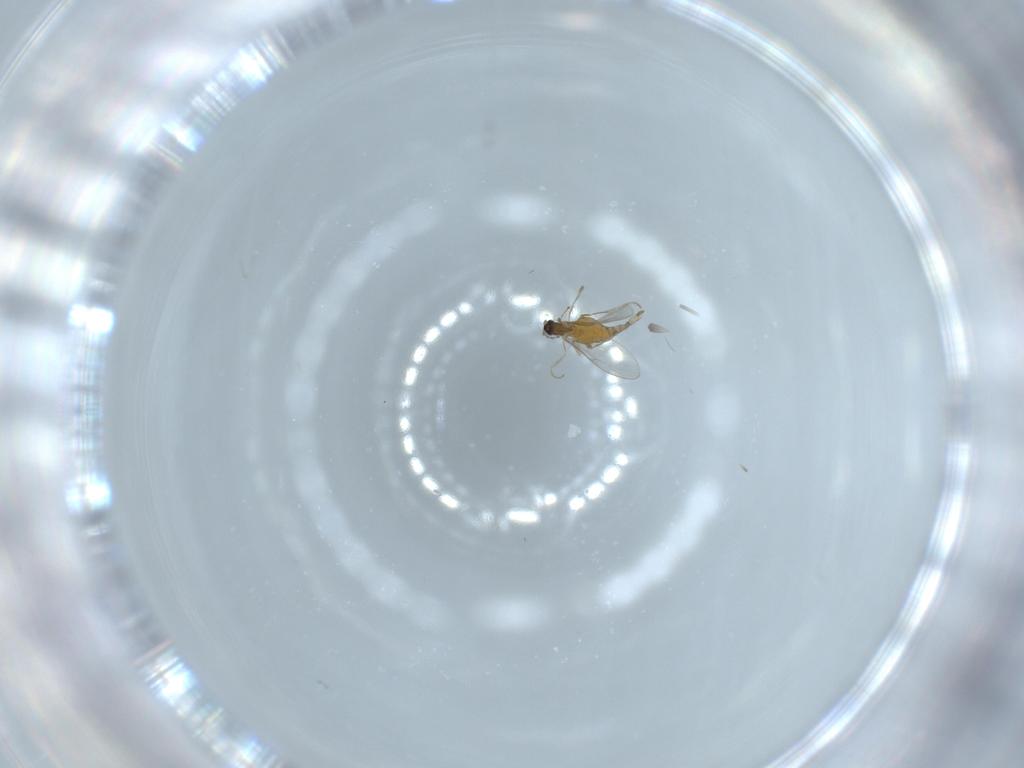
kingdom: Animalia
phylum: Arthropoda
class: Insecta
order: Diptera
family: Cecidomyiidae
